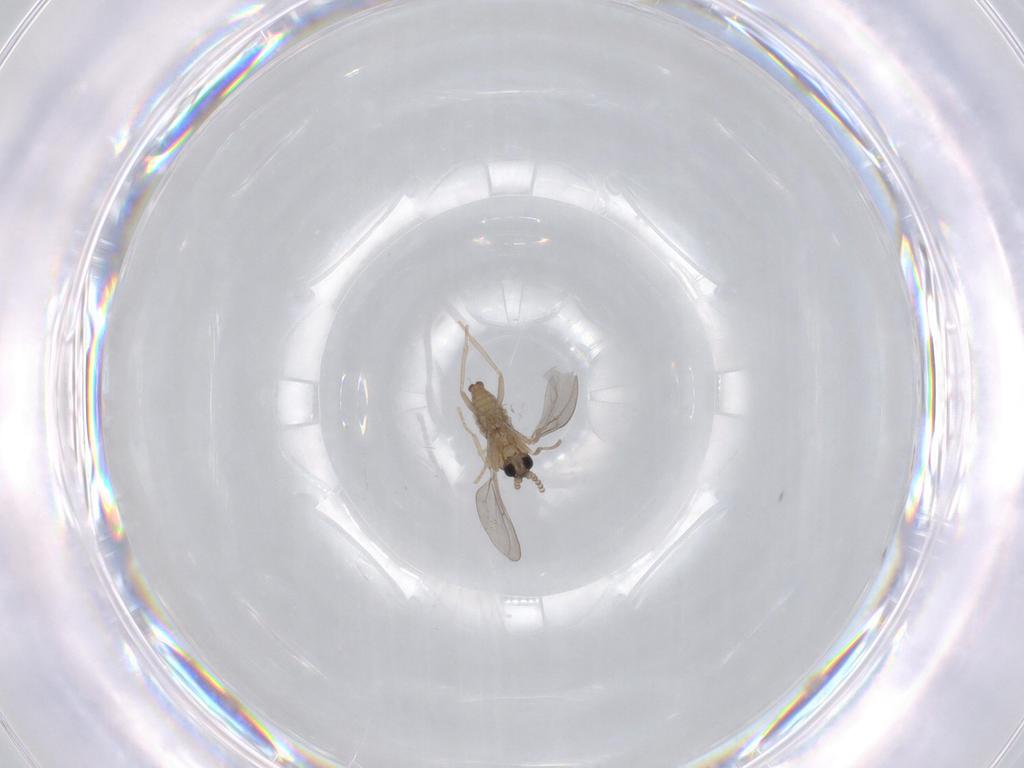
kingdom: Animalia
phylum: Arthropoda
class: Insecta
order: Diptera
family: Cecidomyiidae
